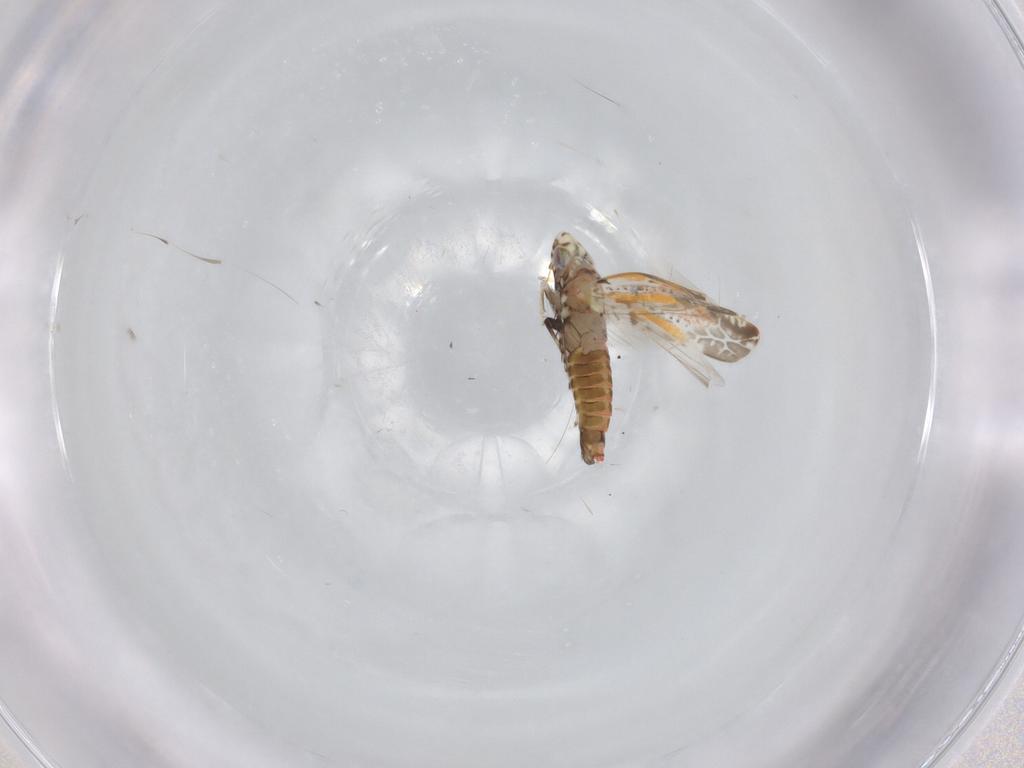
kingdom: Animalia
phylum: Arthropoda
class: Insecta
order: Hemiptera
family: Cicadellidae
